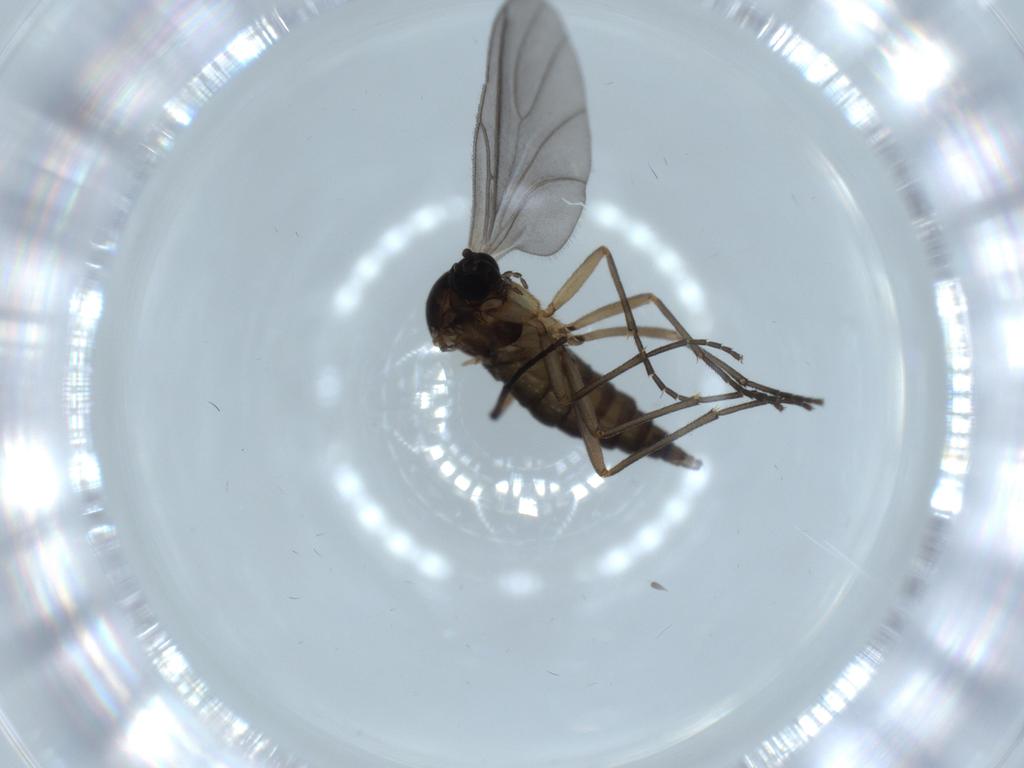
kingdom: Animalia
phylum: Arthropoda
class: Insecta
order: Diptera
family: Sciaridae
